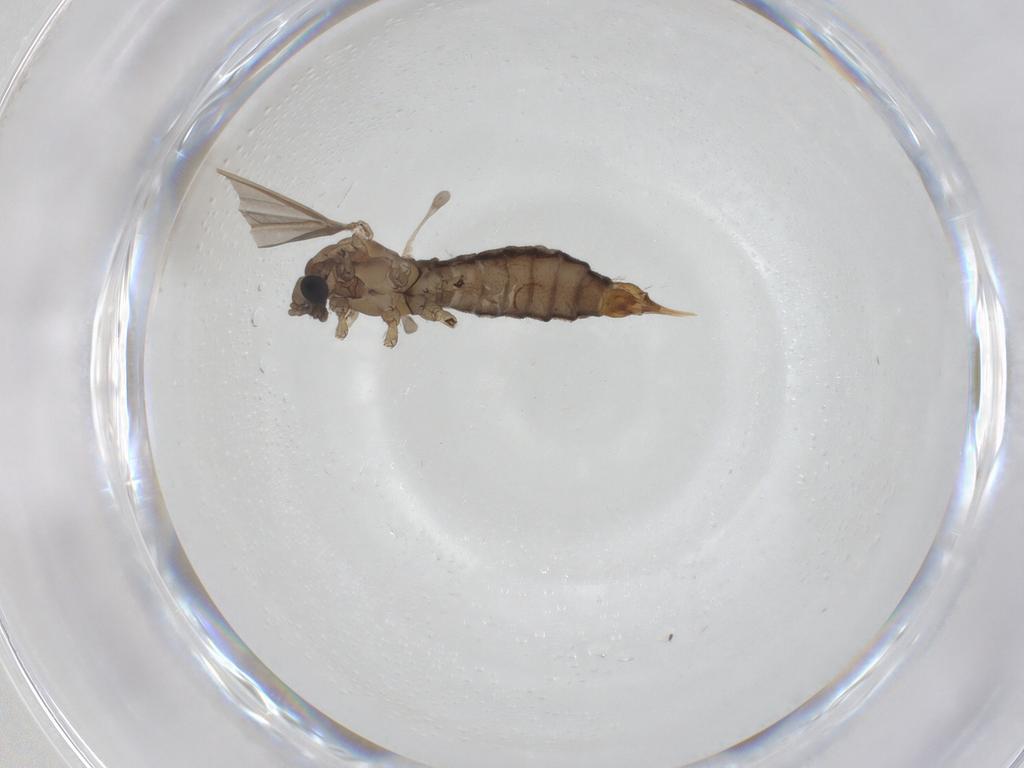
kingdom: Animalia
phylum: Arthropoda
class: Insecta
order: Diptera
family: Limoniidae
